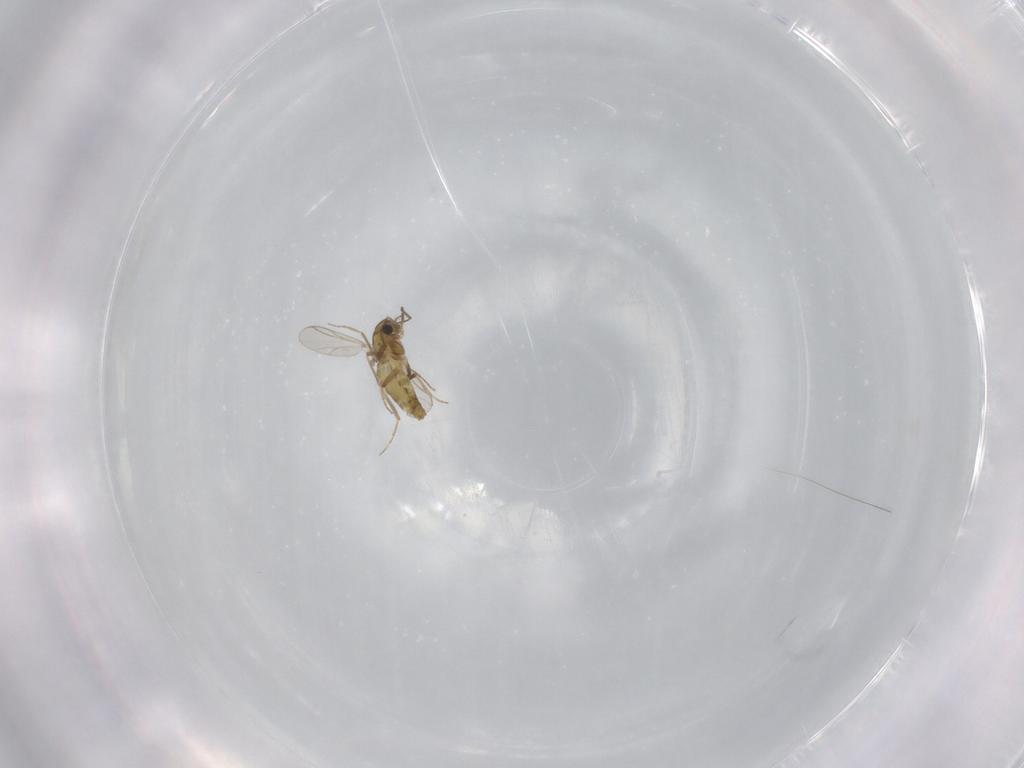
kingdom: Animalia
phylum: Arthropoda
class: Insecta
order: Diptera
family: Chironomidae
